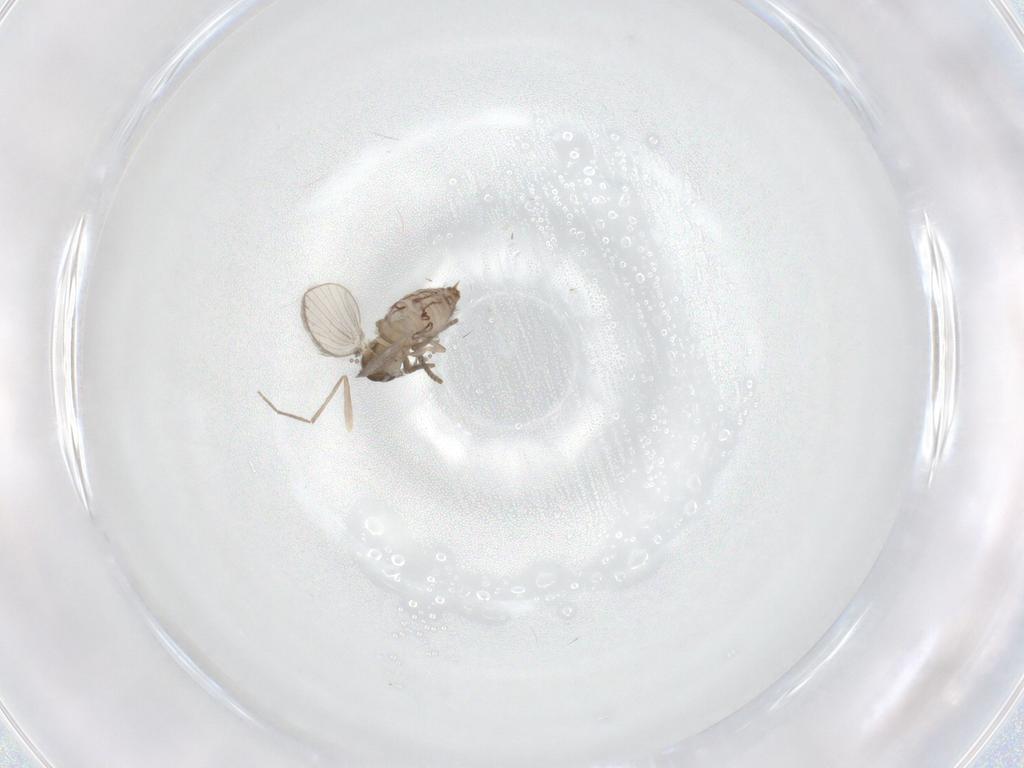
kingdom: Animalia
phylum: Arthropoda
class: Insecta
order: Diptera
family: Psychodidae
